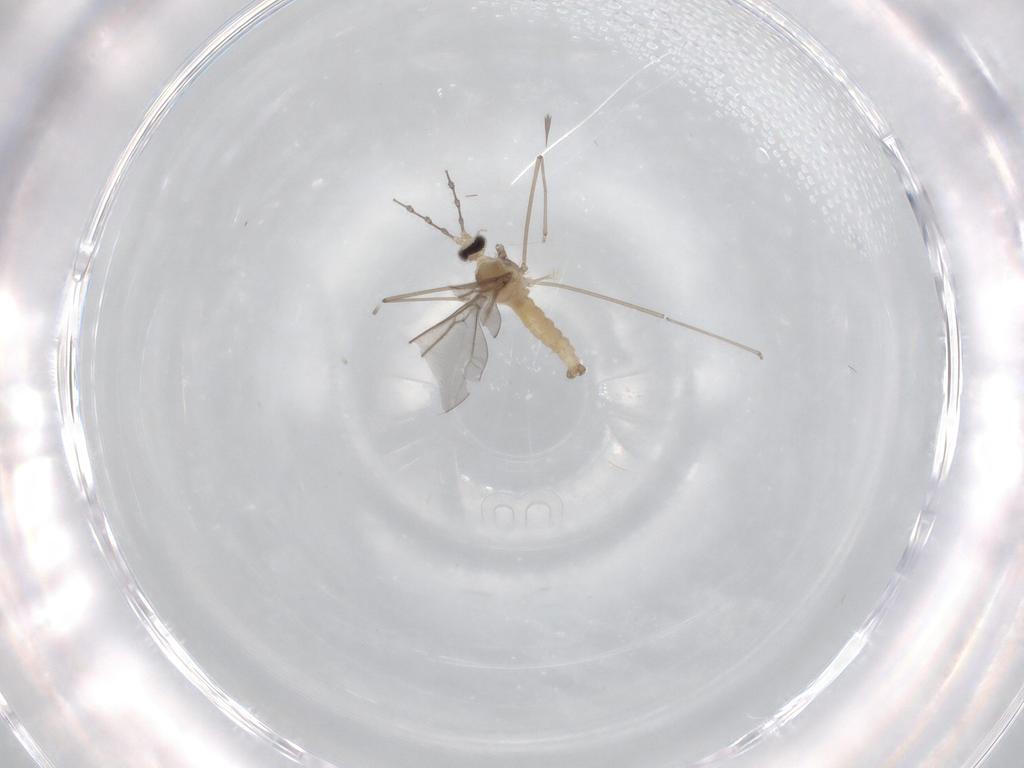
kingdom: Animalia
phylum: Arthropoda
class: Insecta
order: Diptera
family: Cecidomyiidae
